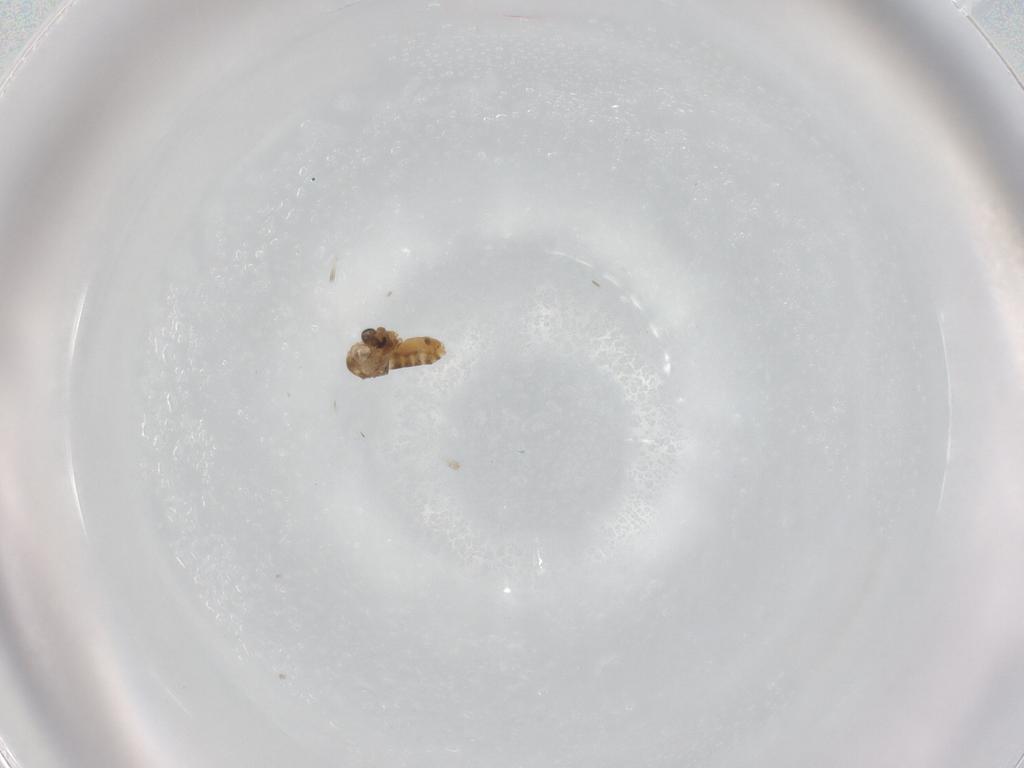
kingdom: Animalia
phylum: Arthropoda
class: Insecta
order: Diptera
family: Chironomidae
